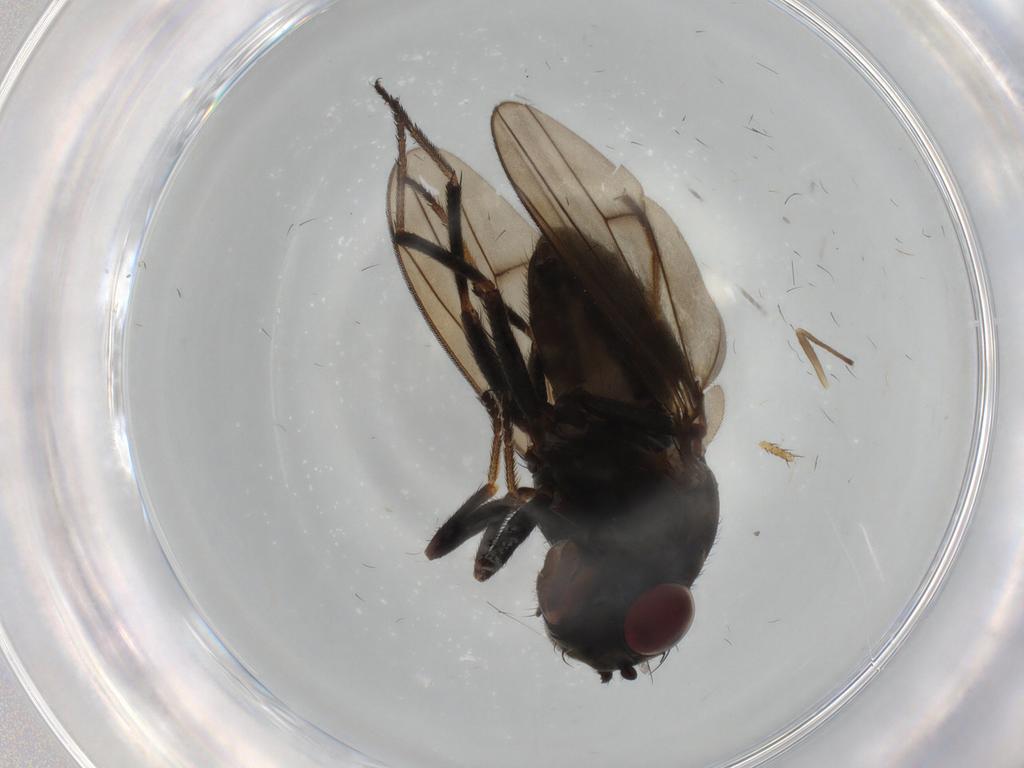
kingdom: Animalia
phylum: Arthropoda
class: Insecta
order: Diptera
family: Ephydridae
